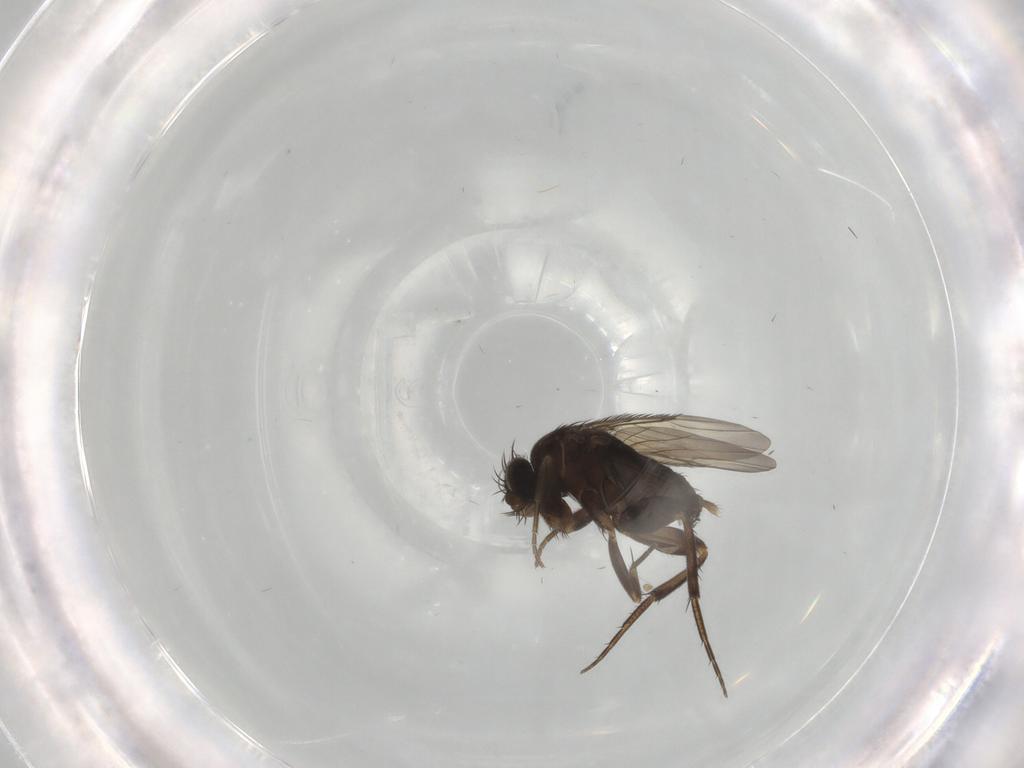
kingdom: Animalia
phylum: Arthropoda
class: Insecta
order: Diptera
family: Phoridae
